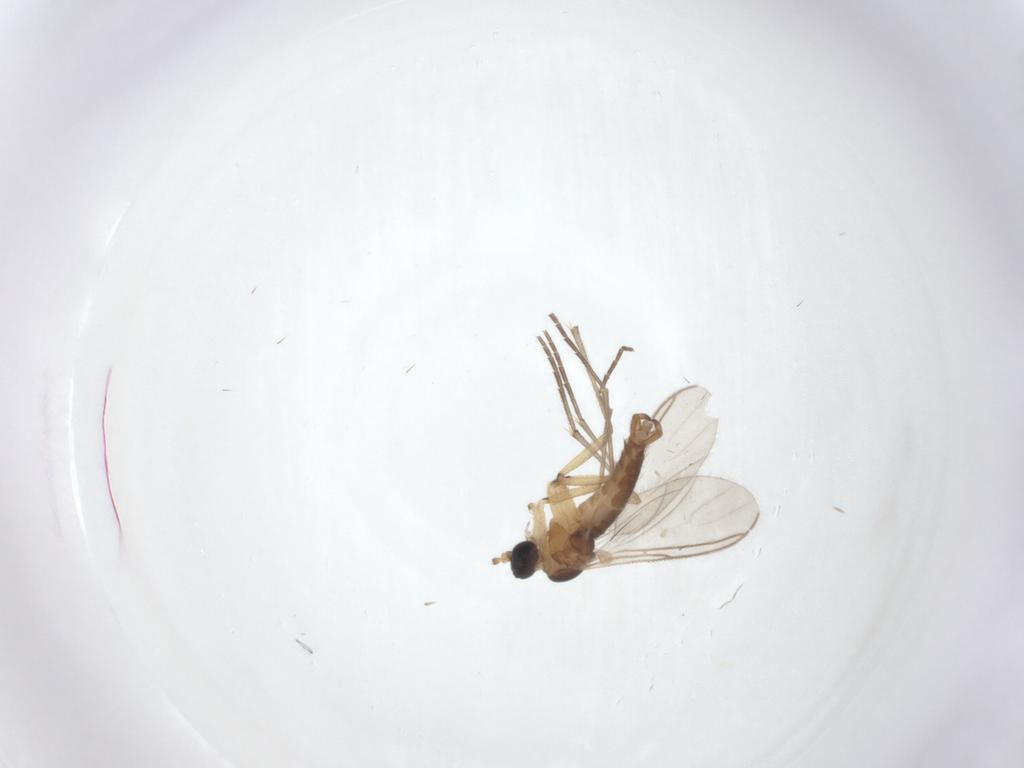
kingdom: Animalia
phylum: Arthropoda
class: Insecta
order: Diptera
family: Sciaridae
